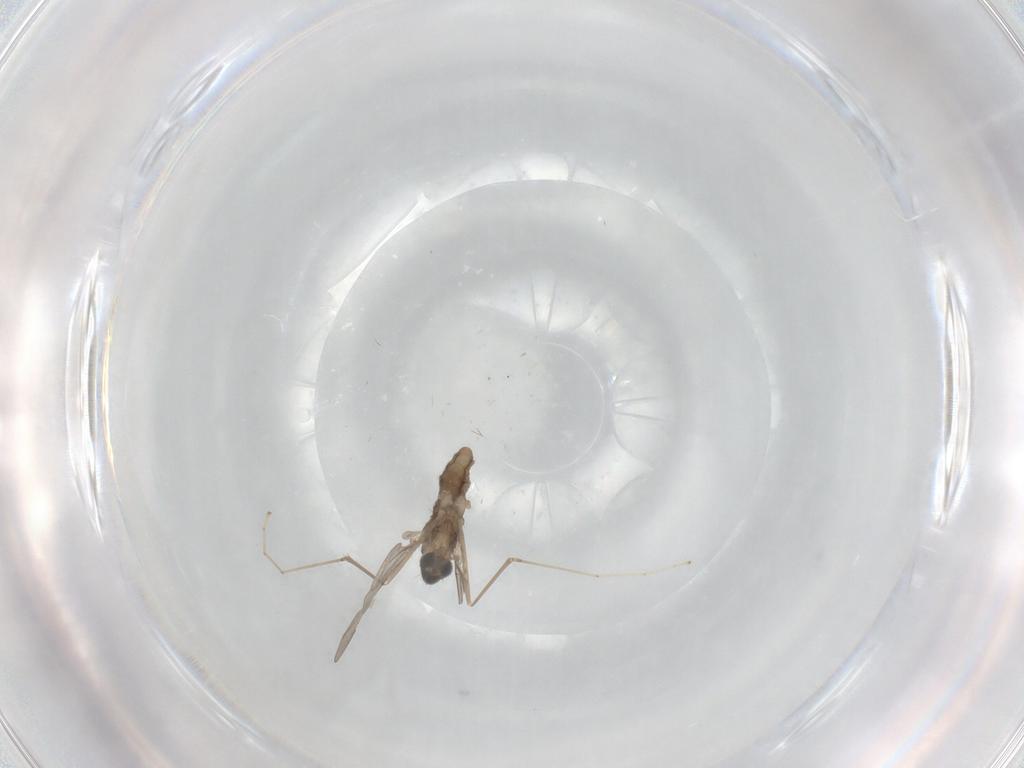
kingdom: Animalia
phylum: Arthropoda
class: Insecta
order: Diptera
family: Cecidomyiidae
